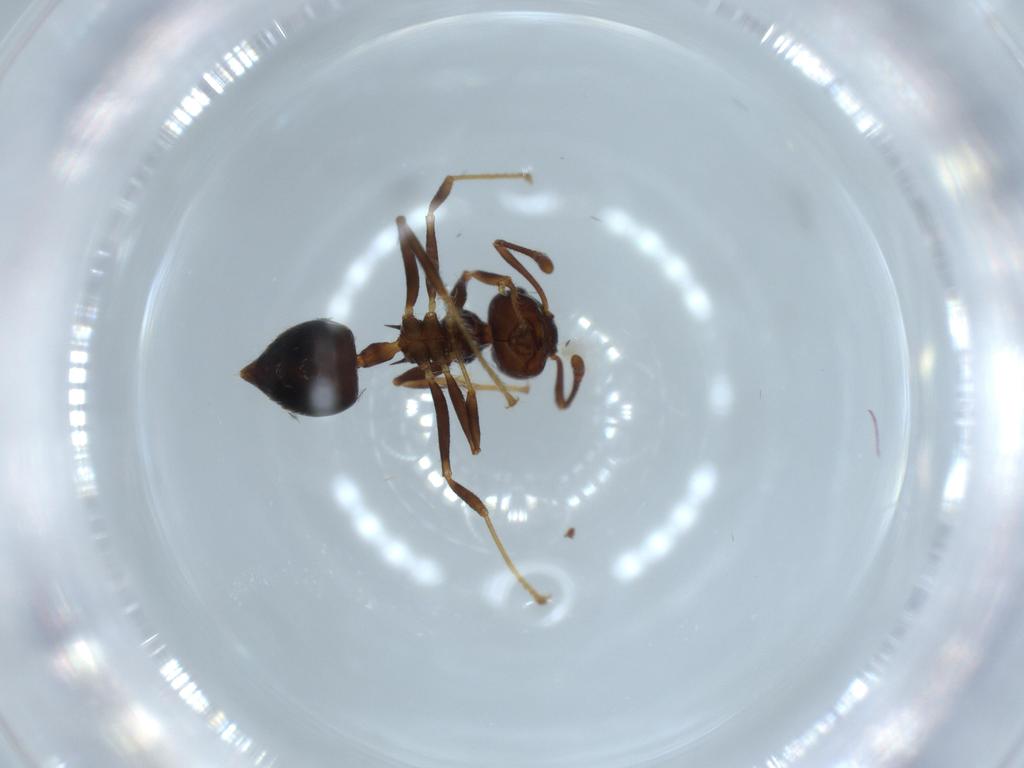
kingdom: Animalia
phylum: Arthropoda
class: Insecta
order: Hymenoptera
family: Formicidae
